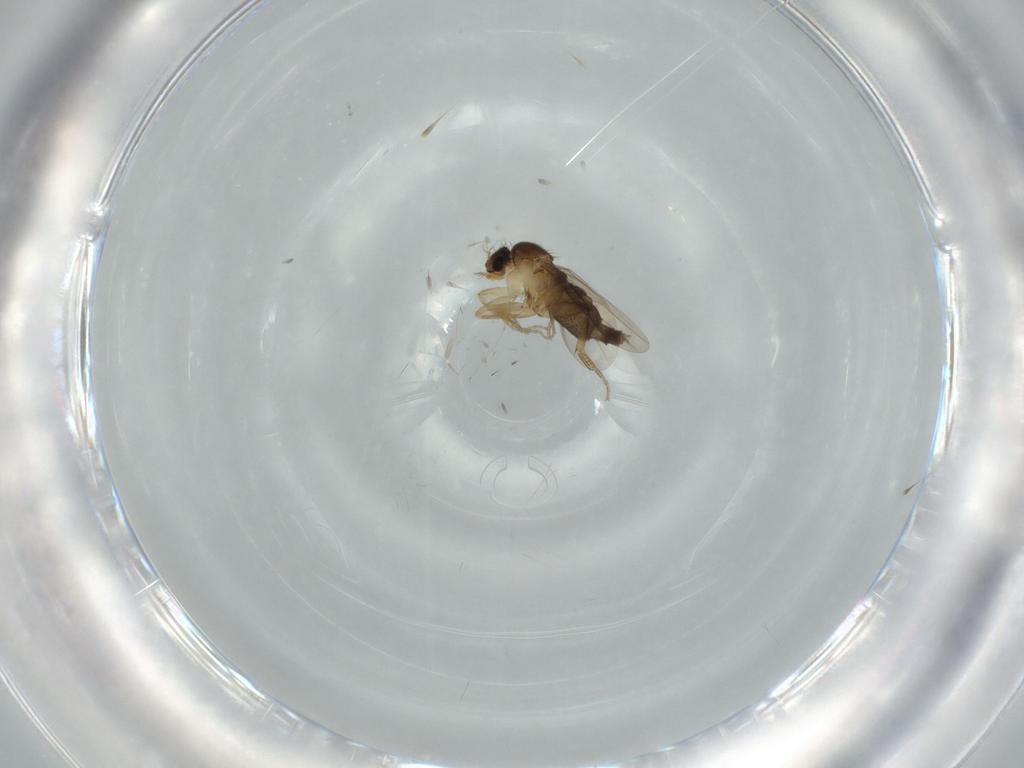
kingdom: Animalia
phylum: Arthropoda
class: Insecta
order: Diptera
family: Phoridae
